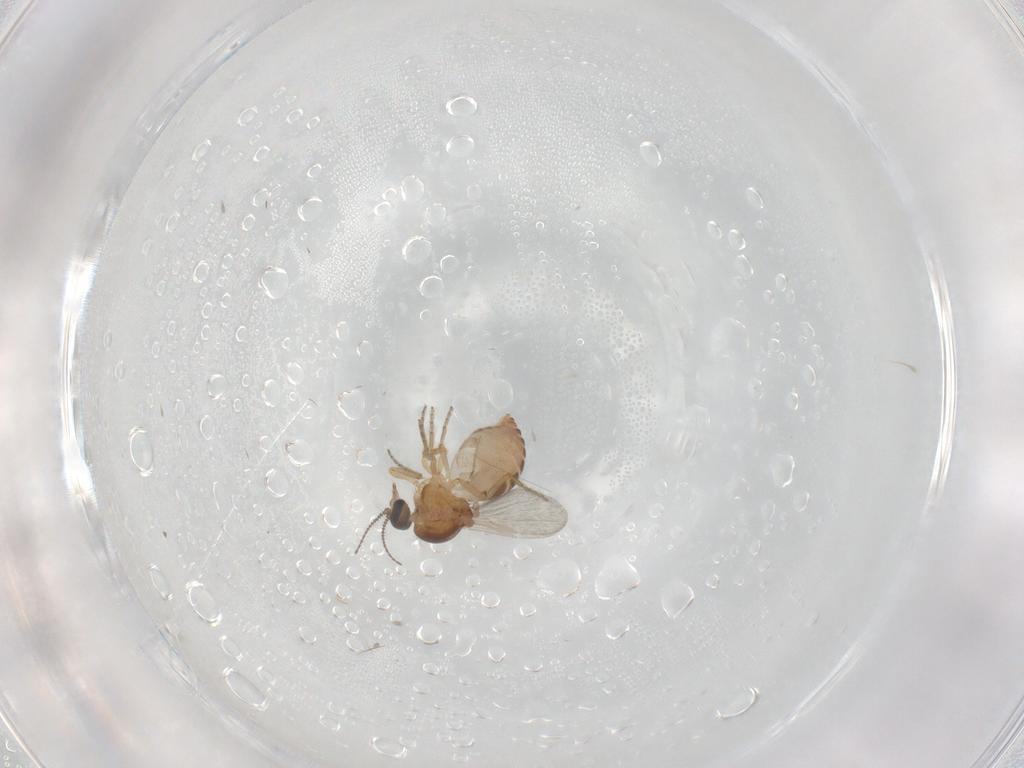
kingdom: Animalia
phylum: Arthropoda
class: Insecta
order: Diptera
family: Ceratopogonidae
